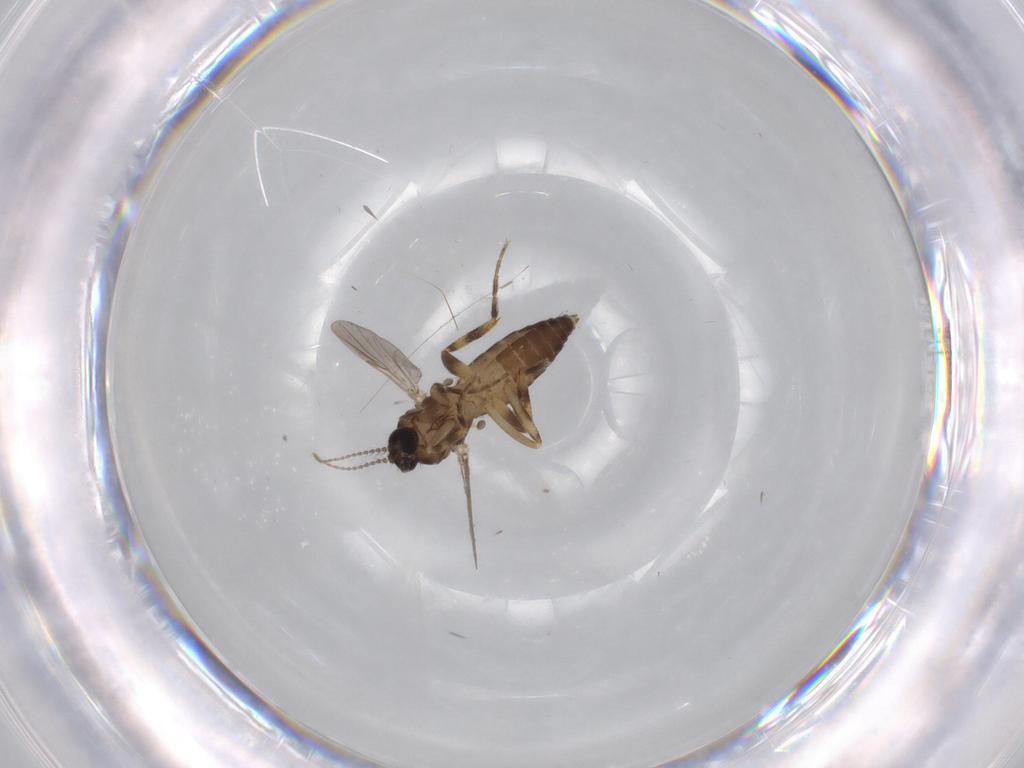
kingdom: Animalia
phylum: Arthropoda
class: Insecta
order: Diptera
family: Ceratopogonidae
